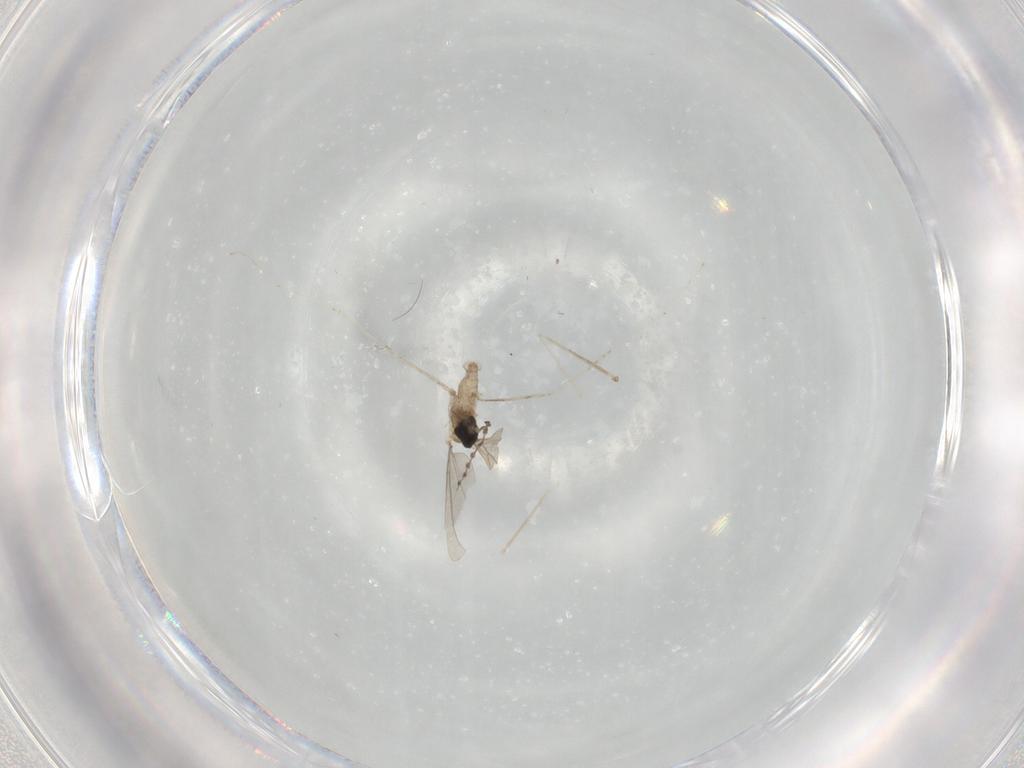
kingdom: Animalia
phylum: Arthropoda
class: Insecta
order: Diptera
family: Cecidomyiidae
